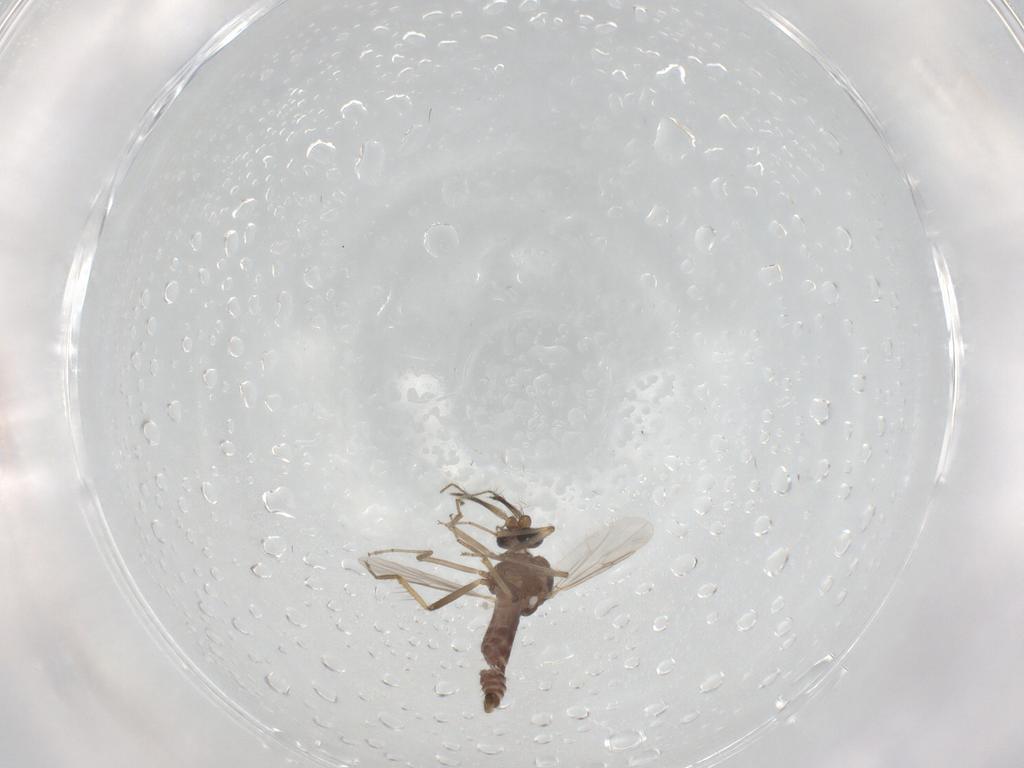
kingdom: Animalia
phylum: Arthropoda
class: Insecta
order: Diptera
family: Ceratopogonidae
